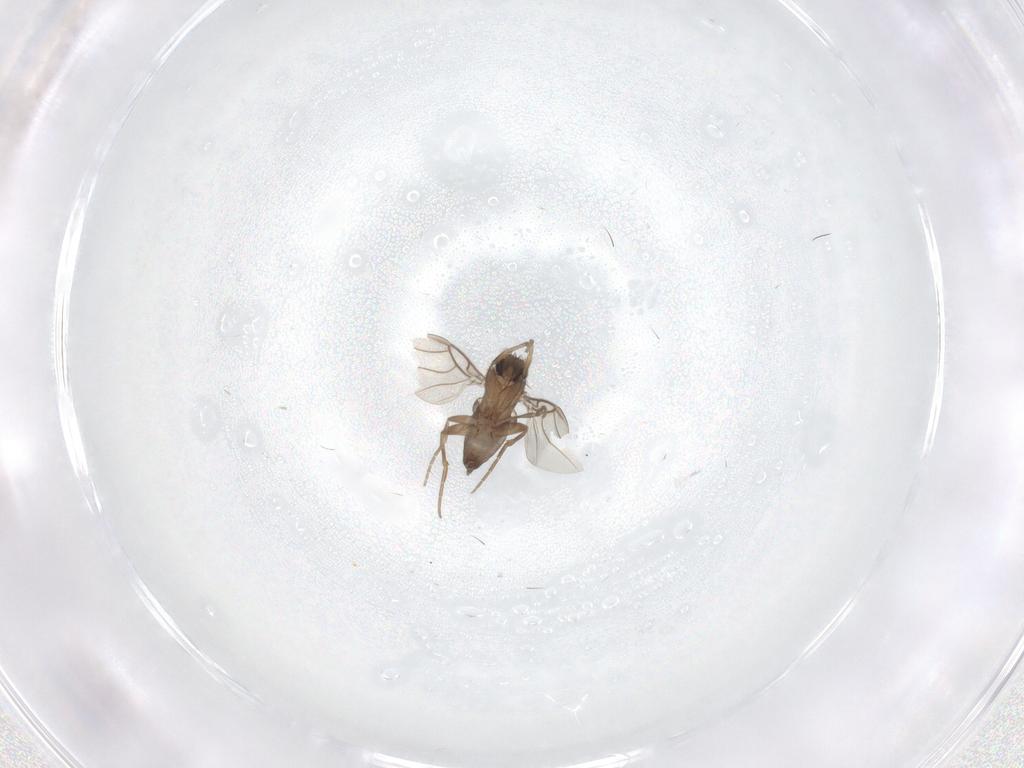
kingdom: Animalia
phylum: Arthropoda
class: Insecta
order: Diptera
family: Phoridae
